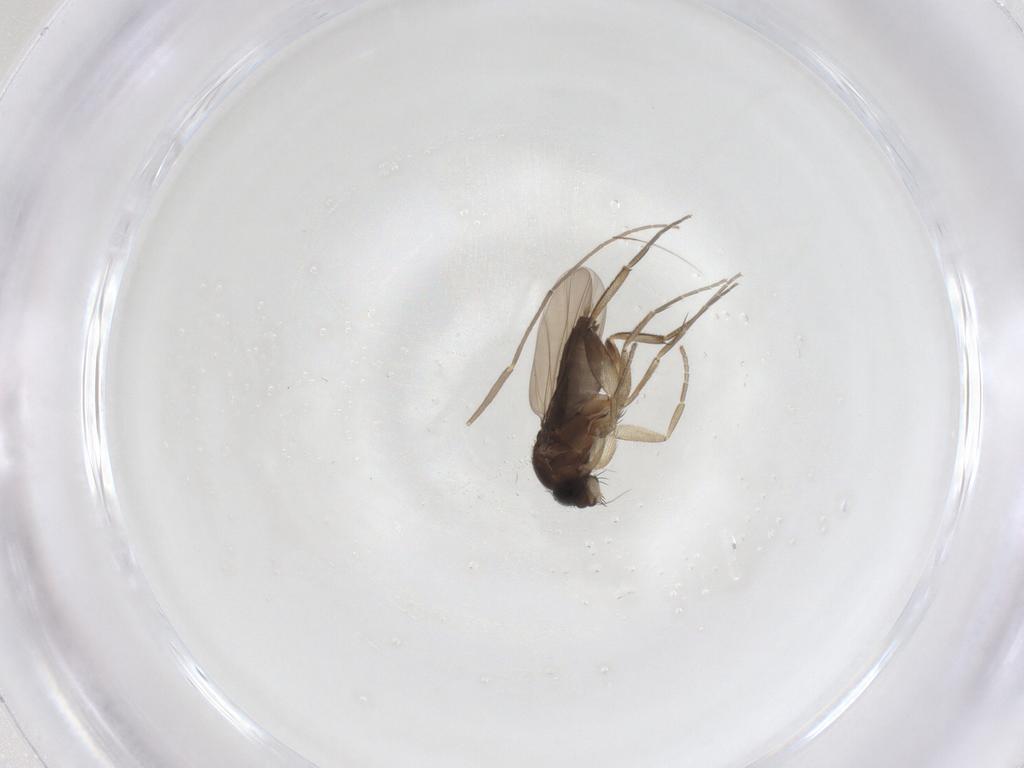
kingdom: Animalia
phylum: Arthropoda
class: Insecta
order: Diptera
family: Phoridae
